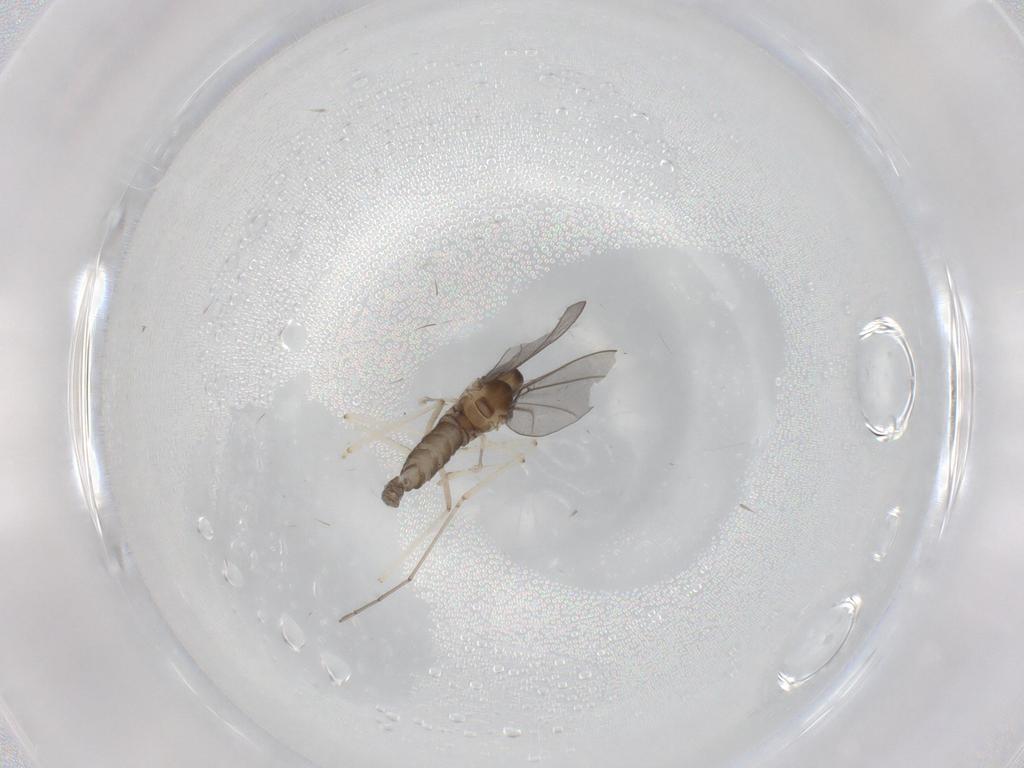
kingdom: Animalia
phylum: Arthropoda
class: Insecta
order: Diptera
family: Cecidomyiidae
